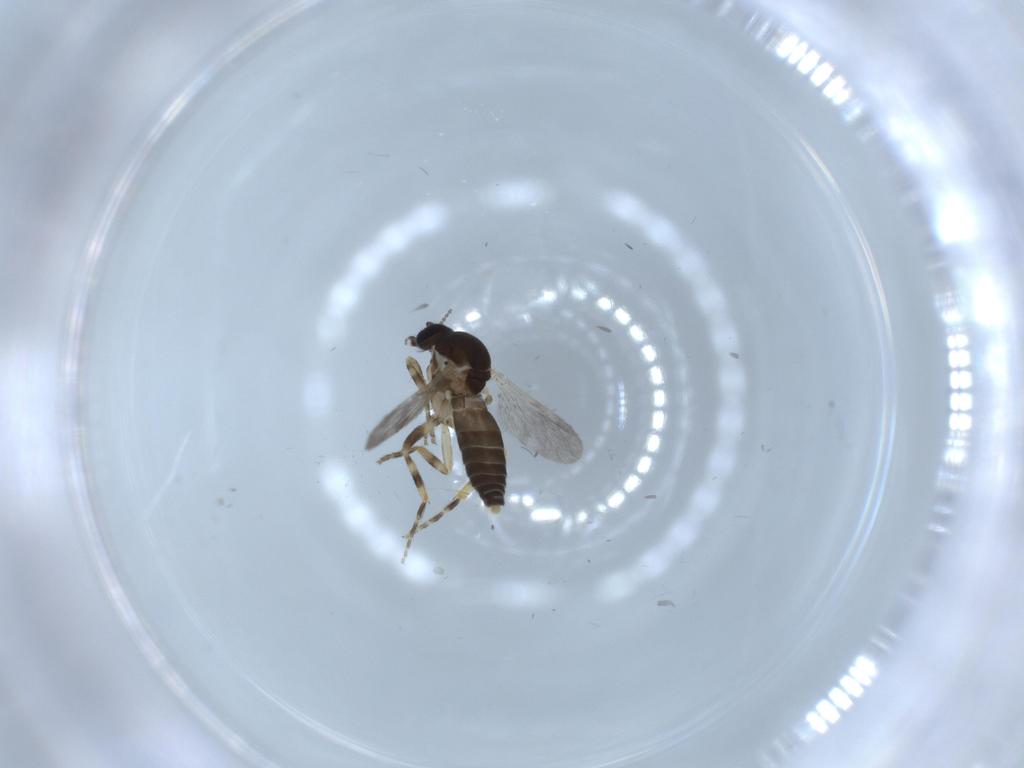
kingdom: Animalia
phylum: Arthropoda
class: Insecta
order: Diptera
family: Ceratopogonidae
